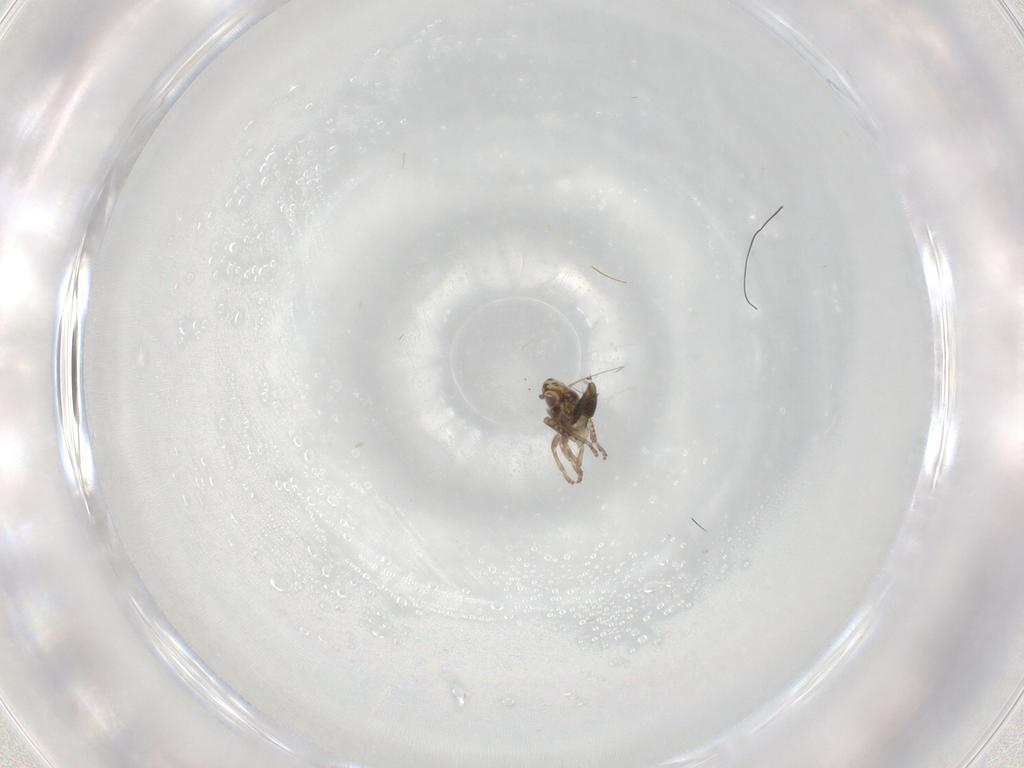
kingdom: Animalia
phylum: Arthropoda
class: Insecta
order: Hemiptera
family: Cicadellidae
